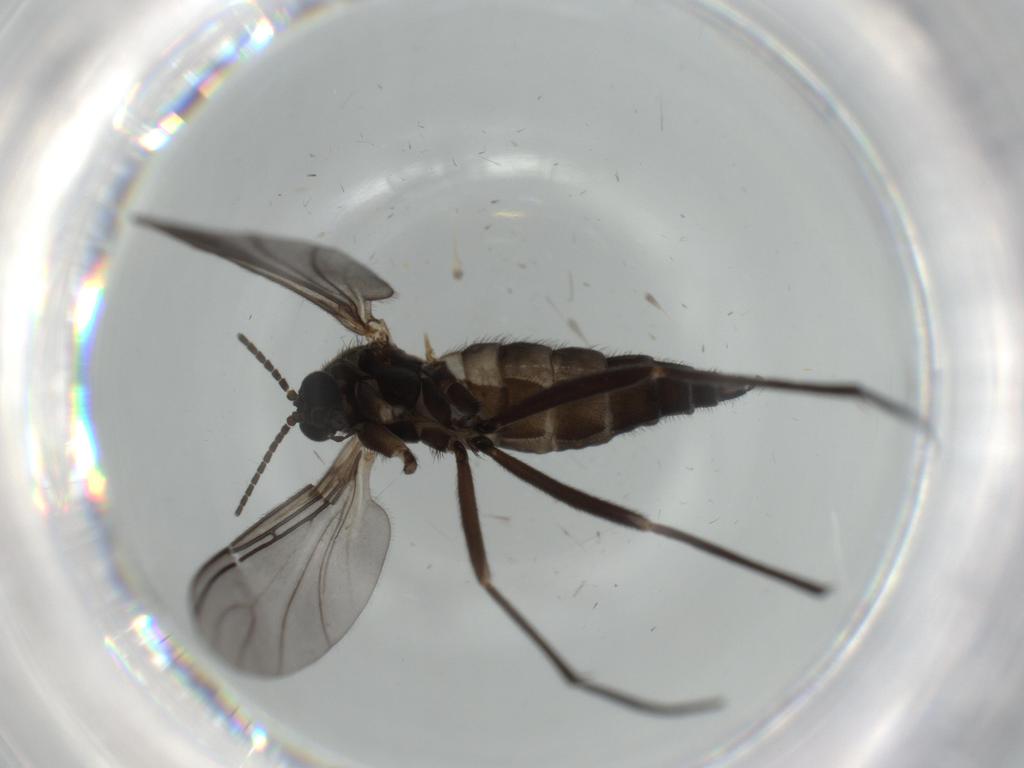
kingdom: Animalia
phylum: Arthropoda
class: Insecta
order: Diptera
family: Sciaridae
